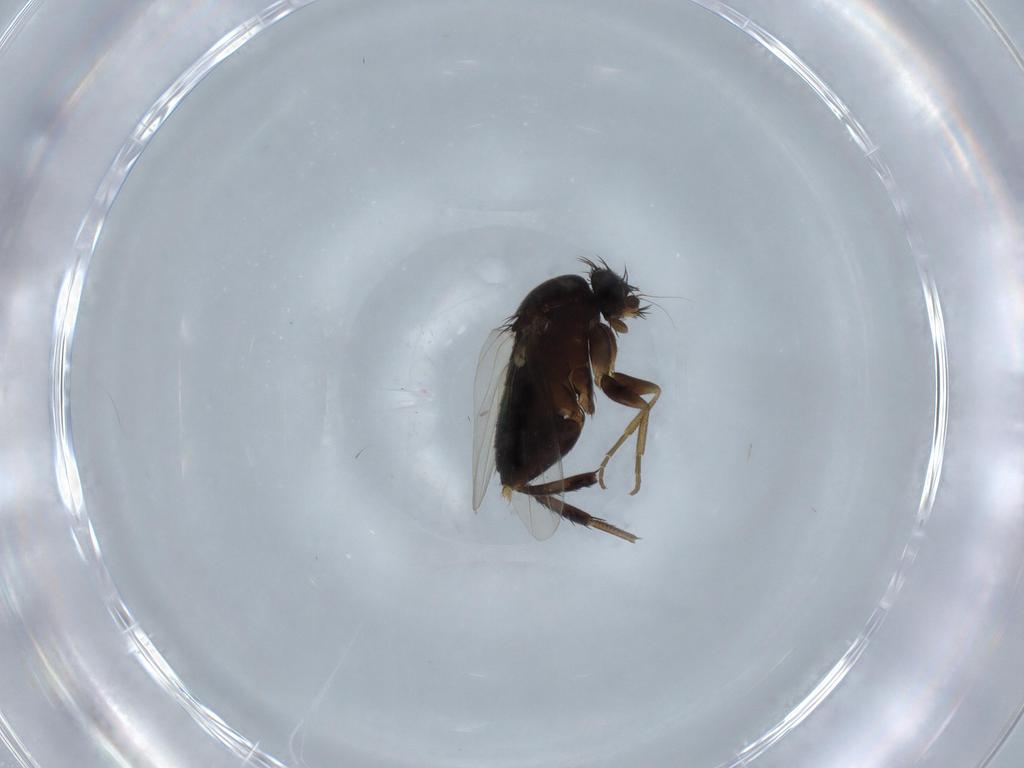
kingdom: Animalia
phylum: Arthropoda
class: Insecta
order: Diptera
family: Phoridae
